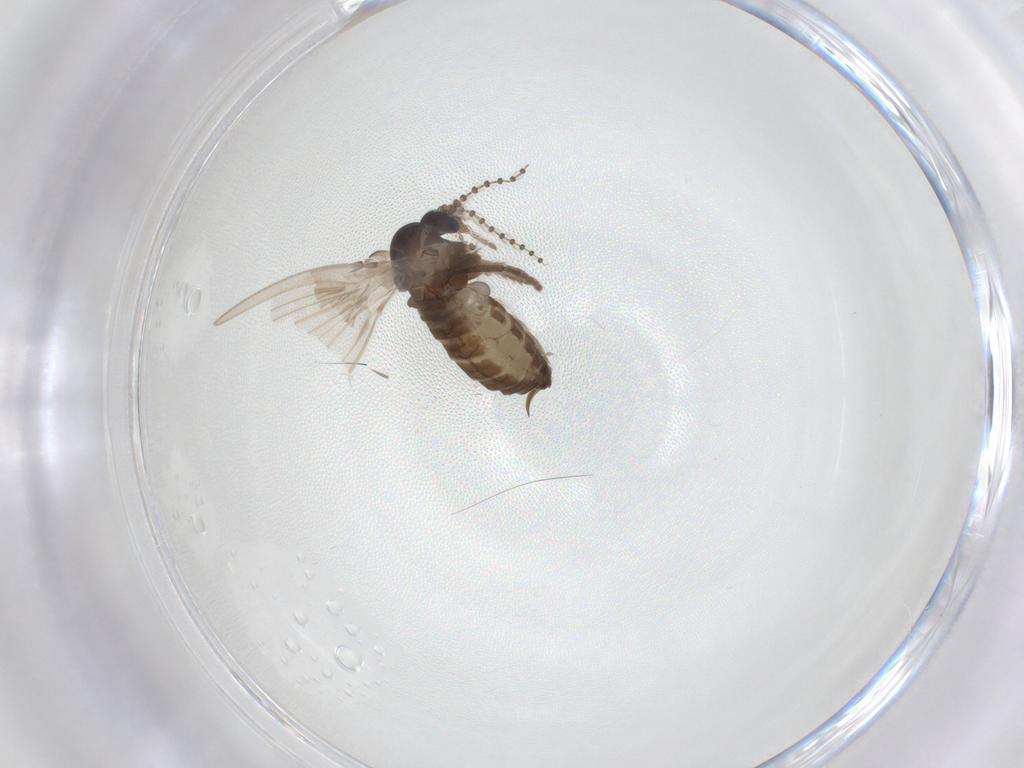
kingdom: Animalia
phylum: Arthropoda
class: Insecta
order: Diptera
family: Psychodidae
